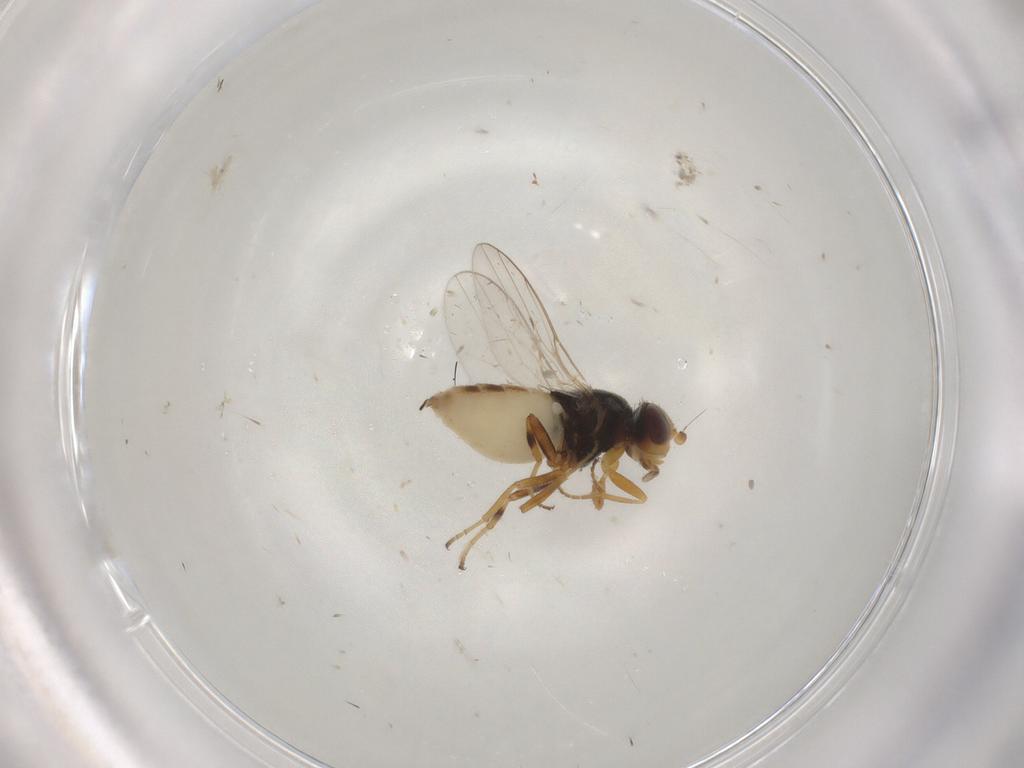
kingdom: Animalia
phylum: Arthropoda
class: Insecta
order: Diptera
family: Chloropidae
